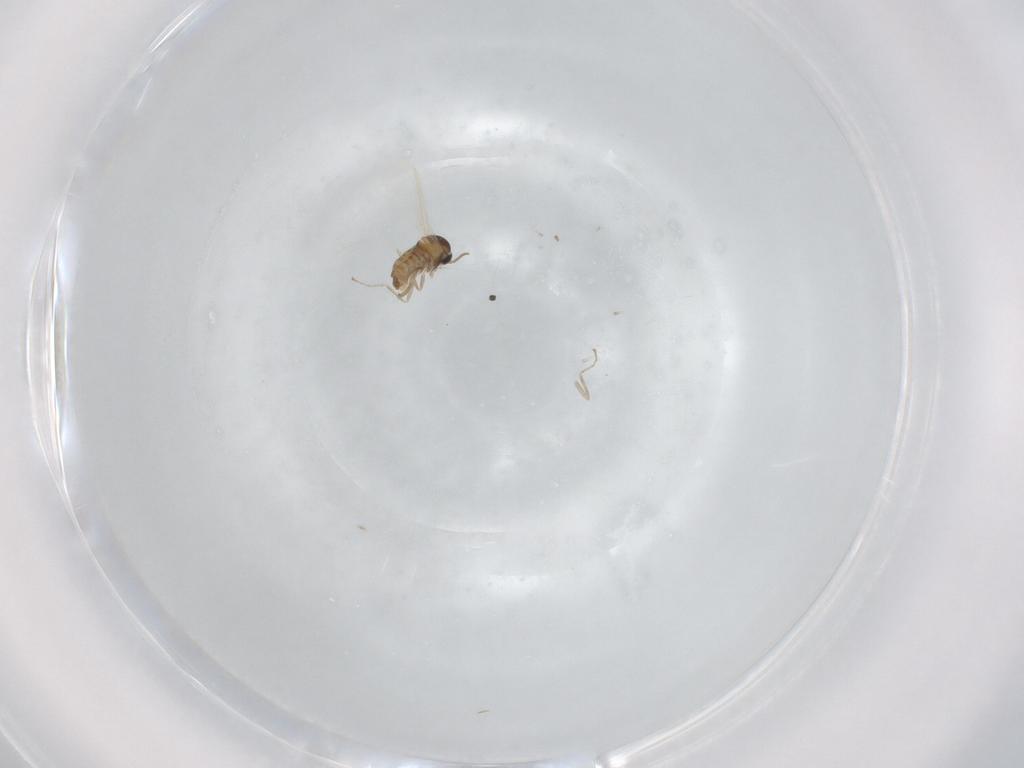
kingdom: Animalia
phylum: Arthropoda
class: Insecta
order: Diptera
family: Cecidomyiidae
